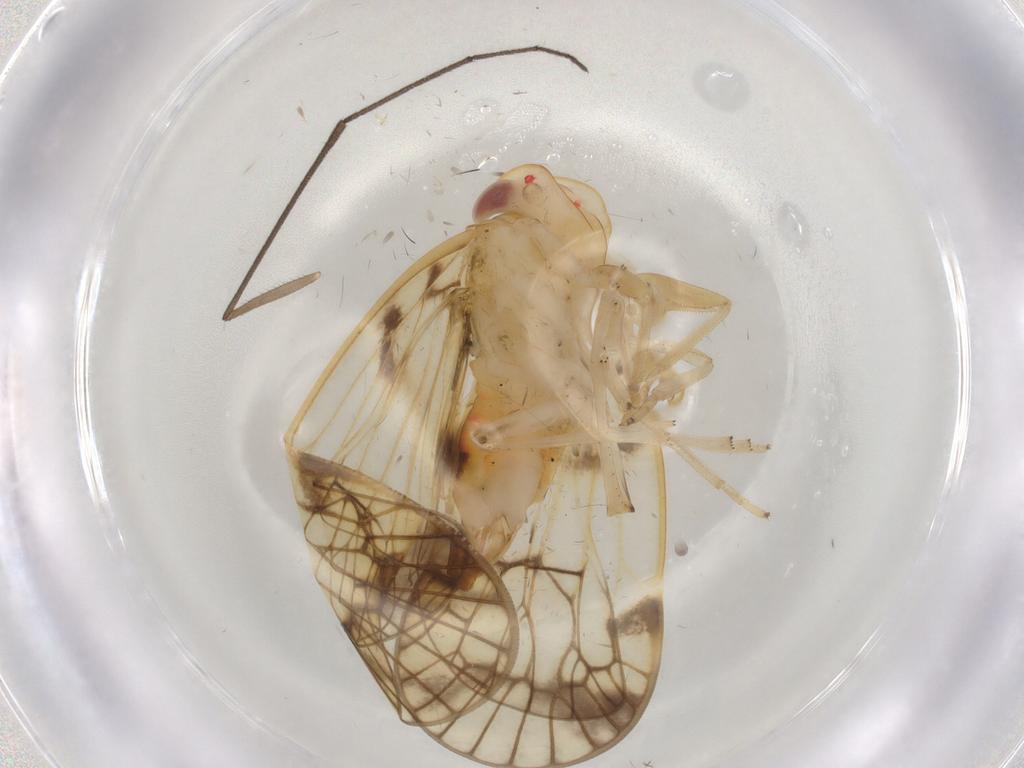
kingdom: Animalia
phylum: Arthropoda
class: Insecta
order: Hemiptera
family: Cixiidae
